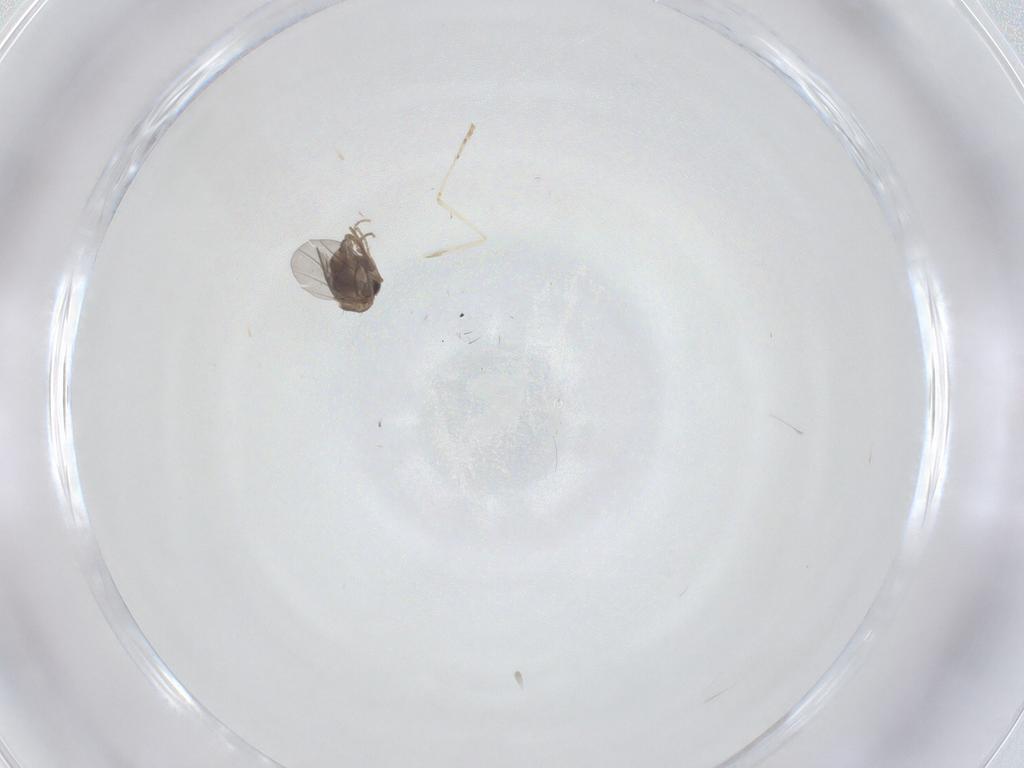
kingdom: Animalia
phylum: Arthropoda
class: Insecta
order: Diptera
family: Cecidomyiidae
